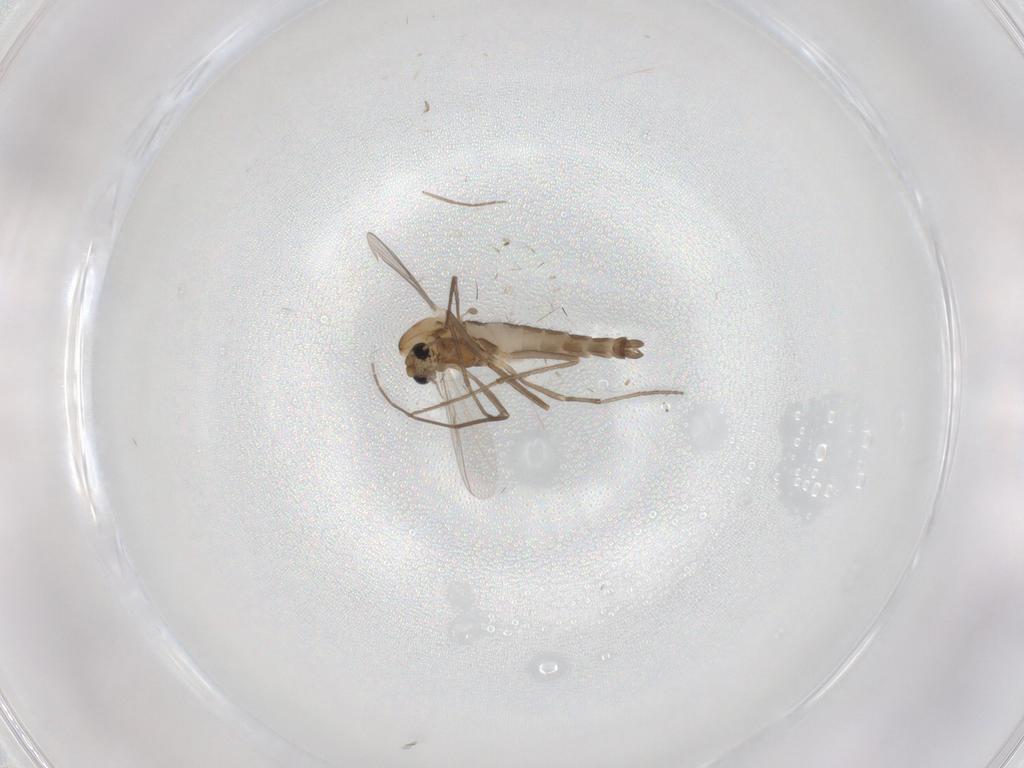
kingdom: Animalia
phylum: Arthropoda
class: Insecta
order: Diptera
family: Chironomidae
